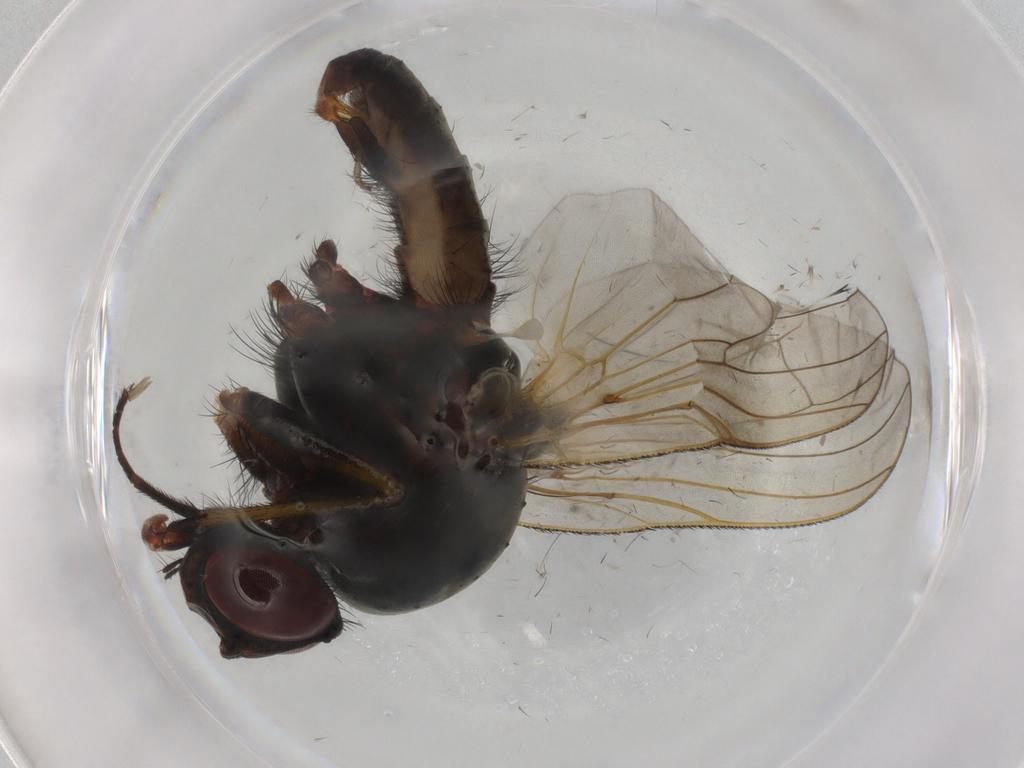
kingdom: Animalia
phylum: Arthropoda
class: Insecta
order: Diptera
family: Anthomyiidae
